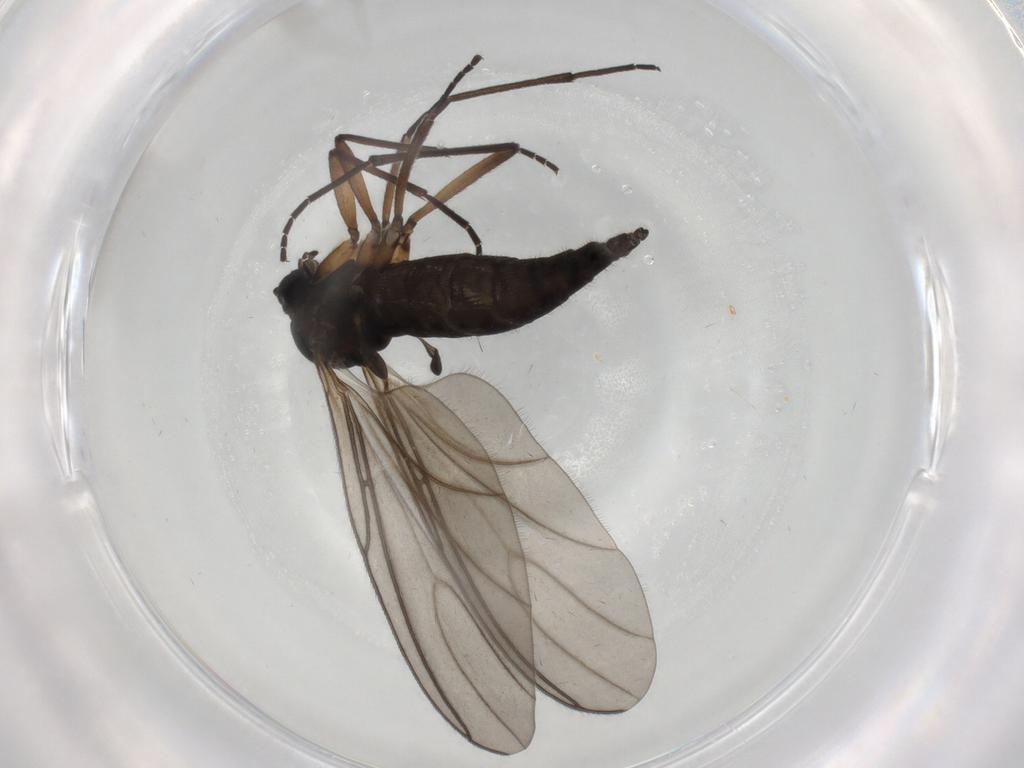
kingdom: Animalia
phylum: Arthropoda
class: Insecta
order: Diptera
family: Sciaridae
